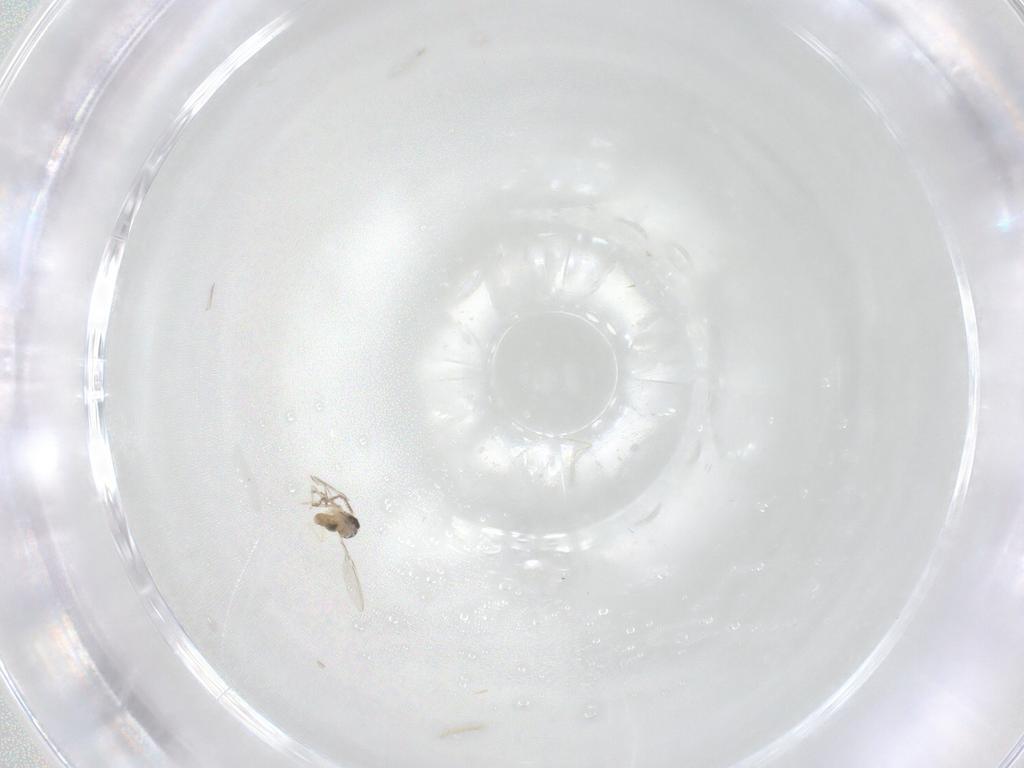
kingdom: Animalia
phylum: Arthropoda
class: Insecta
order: Diptera
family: Cecidomyiidae
